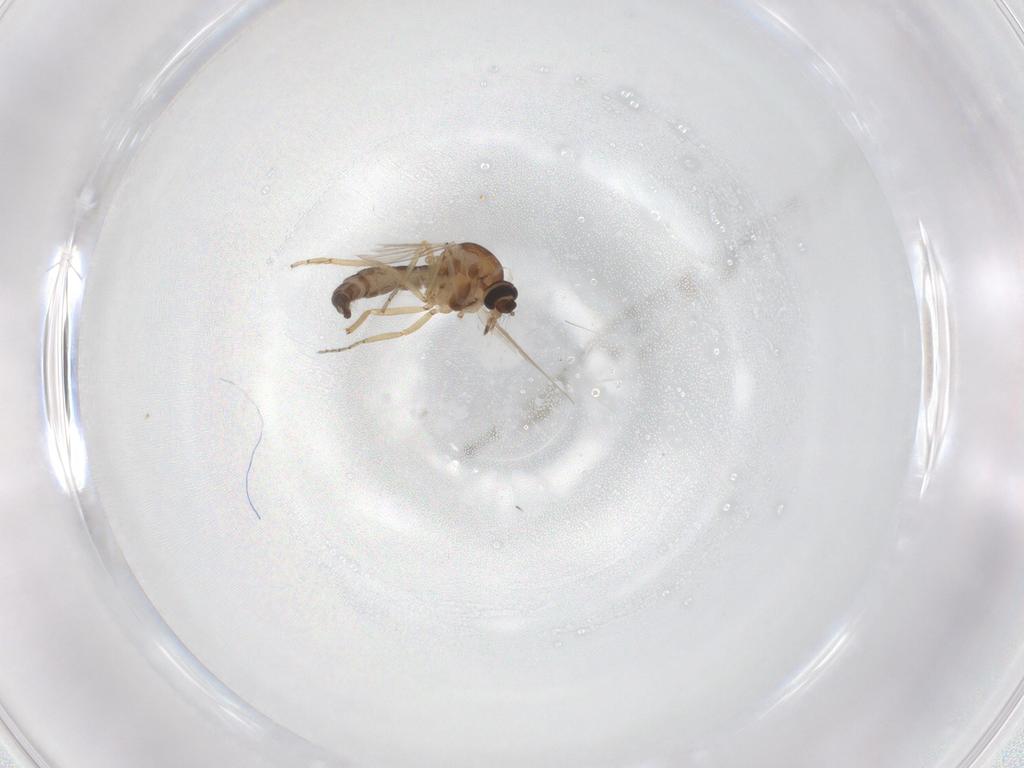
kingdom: Animalia
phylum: Arthropoda
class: Insecta
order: Diptera
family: Ceratopogonidae
